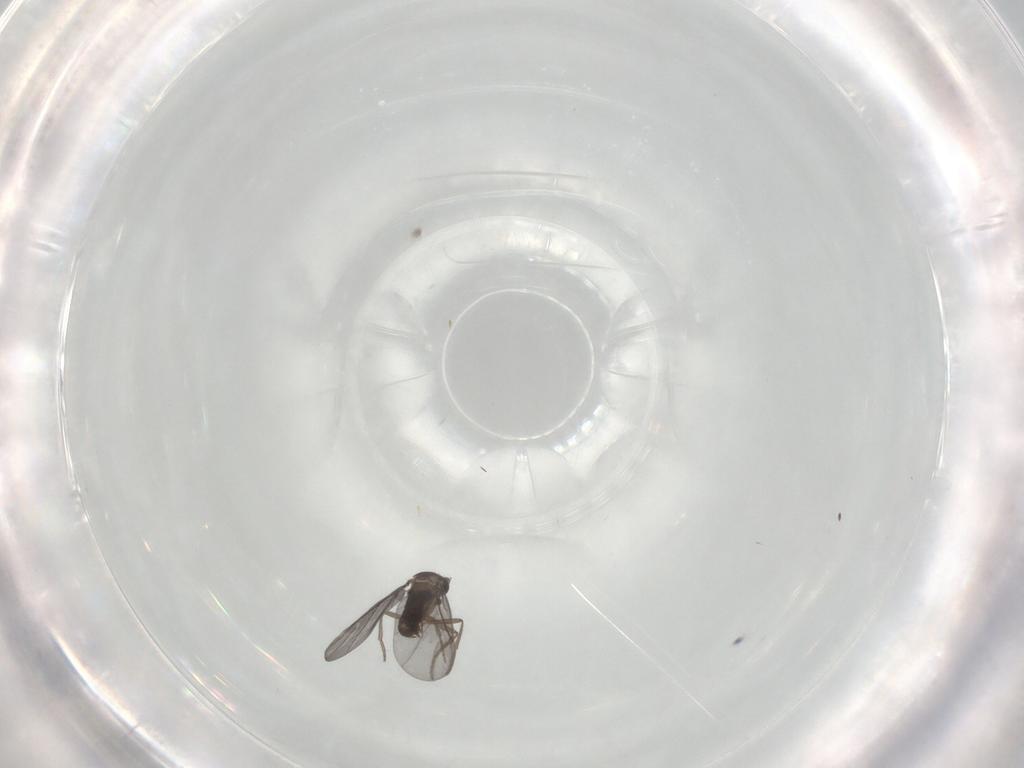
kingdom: Animalia
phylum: Arthropoda
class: Insecta
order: Diptera
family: Phoridae
